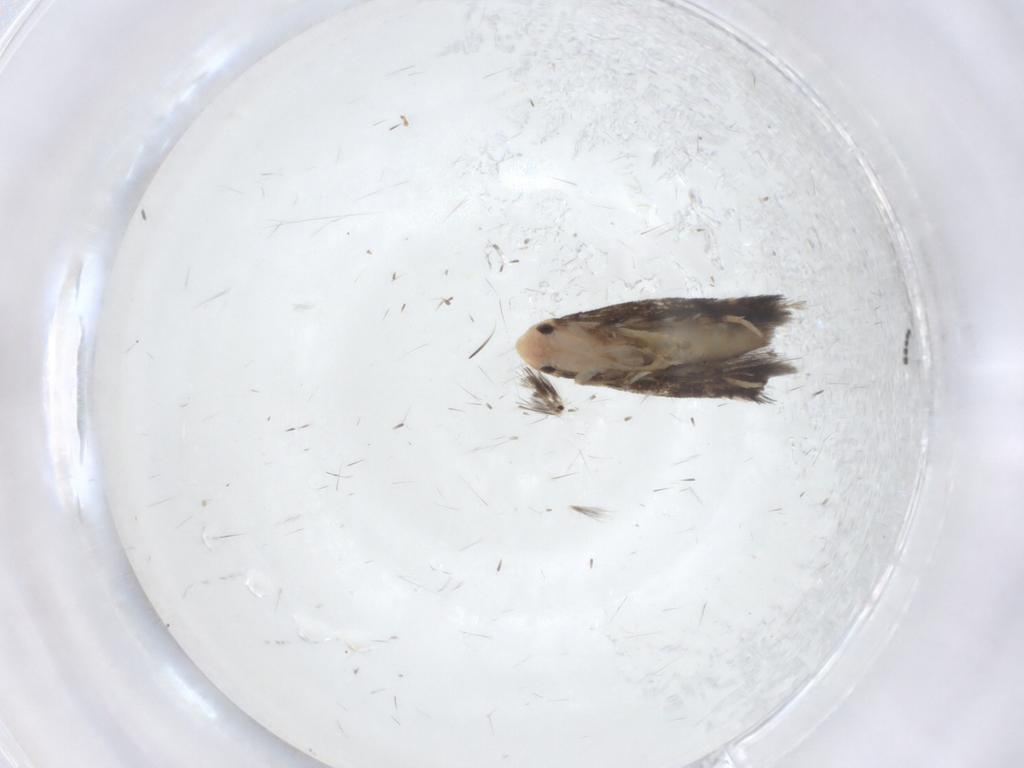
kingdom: Animalia
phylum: Arthropoda
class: Insecta
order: Lepidoptera
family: Nepticulidae
